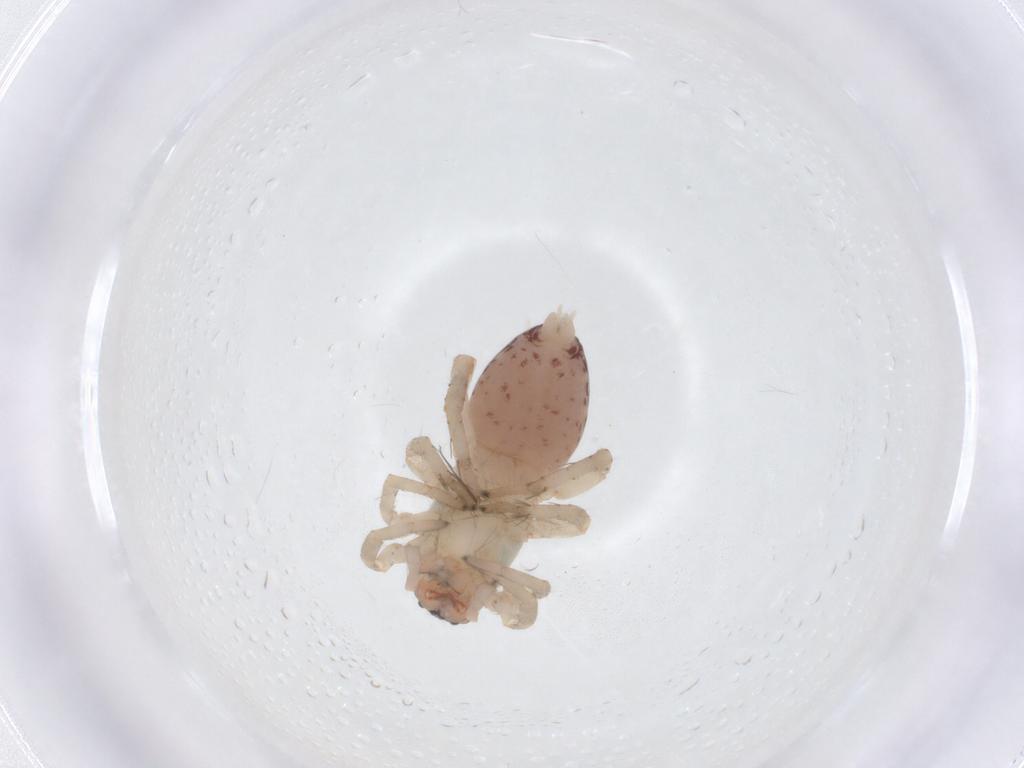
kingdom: Animalia
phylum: Arthropoda
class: Arachnida
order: Araneae
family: Clubionidae
